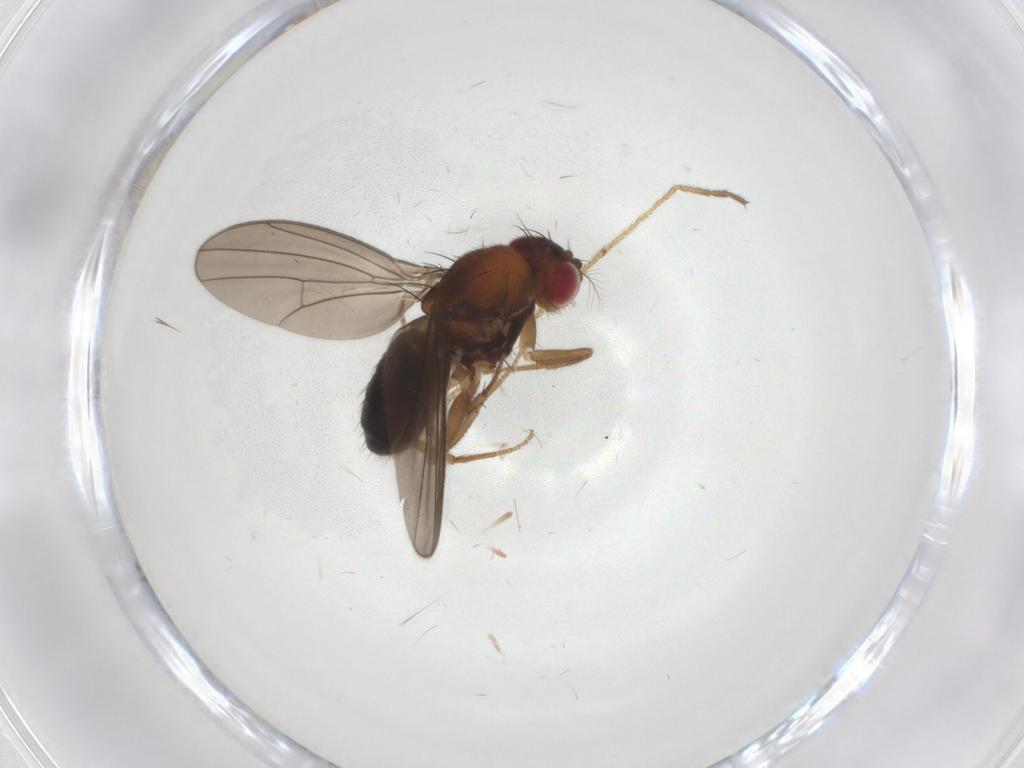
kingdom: Animalia
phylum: Arthropoda
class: Insecta
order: Diptera
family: Drosophilidae
